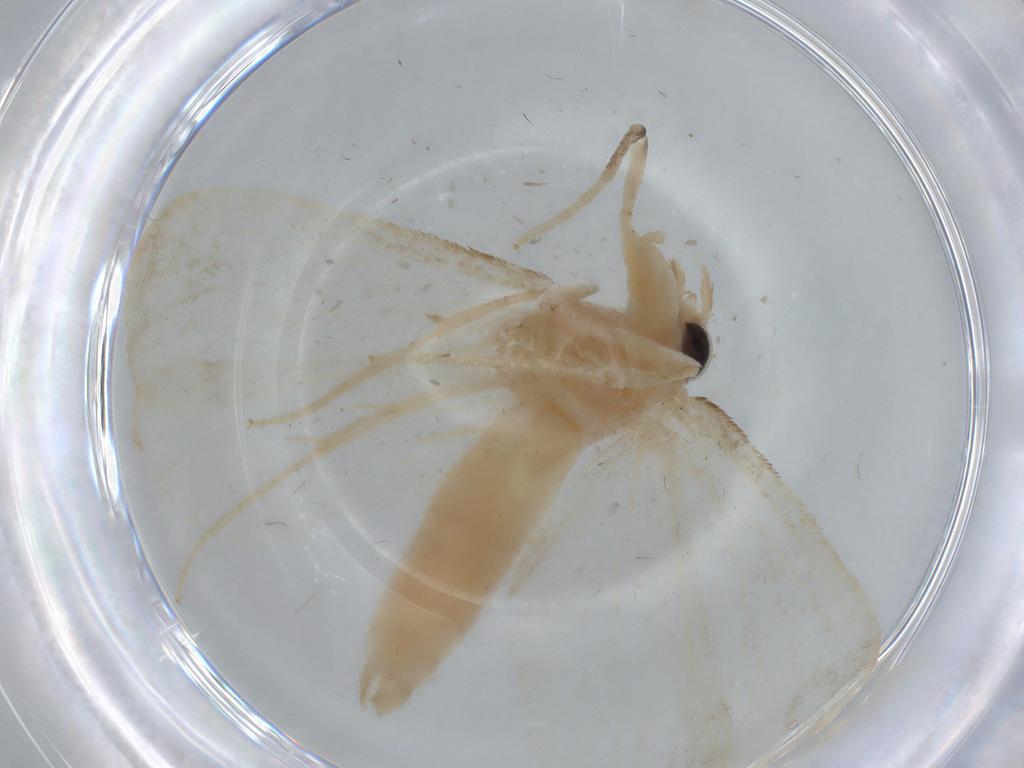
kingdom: Animalia
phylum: Arthropoda
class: Insecta
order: Lepidoptera
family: Crambidae
